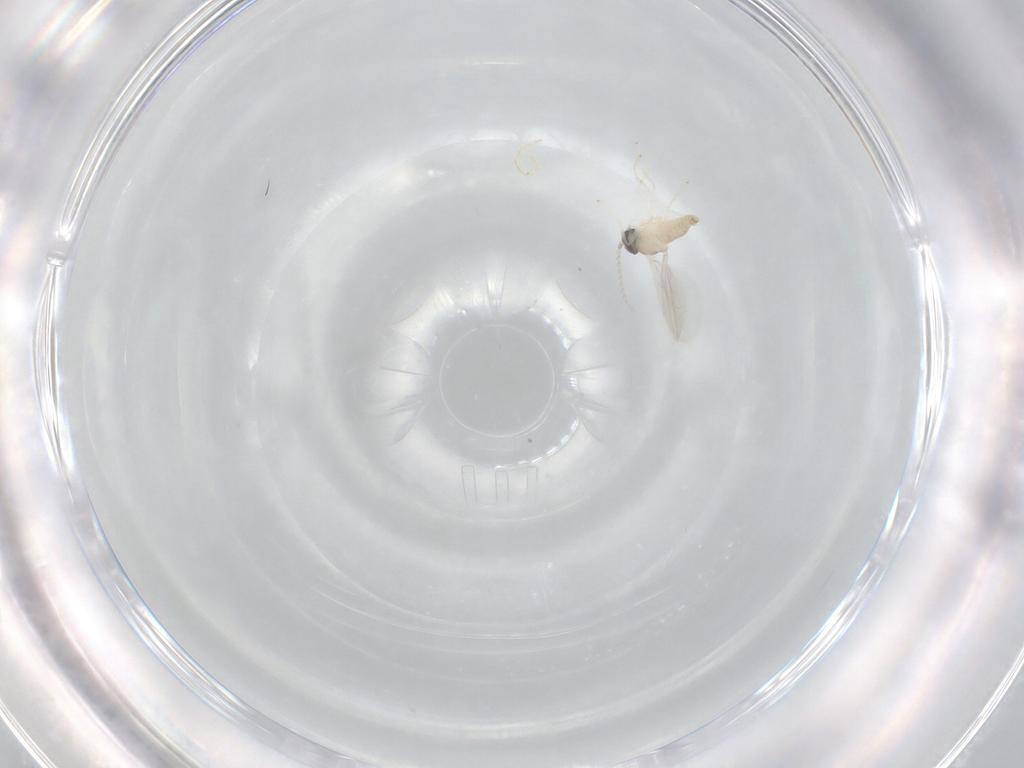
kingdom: Animalia
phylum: Arthropoda
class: Insecta
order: Diptera
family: Cecidomyiidae
